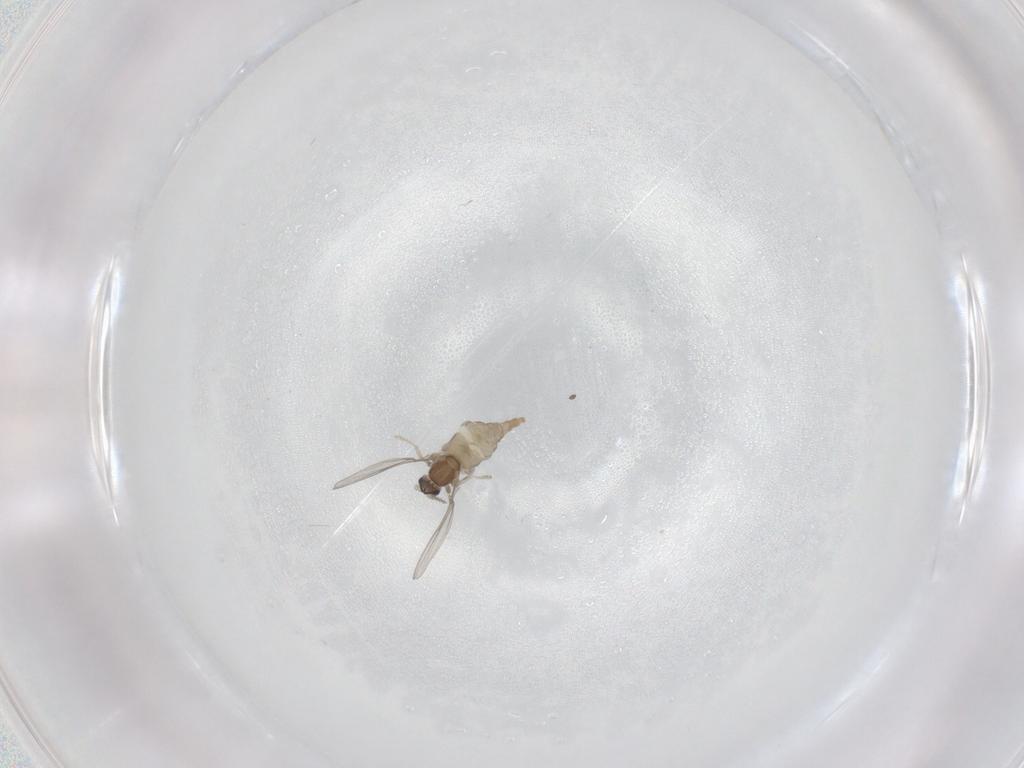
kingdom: Animalia
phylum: Arthropoda
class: Insecta
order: Diptera
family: Cecidomyiidae
